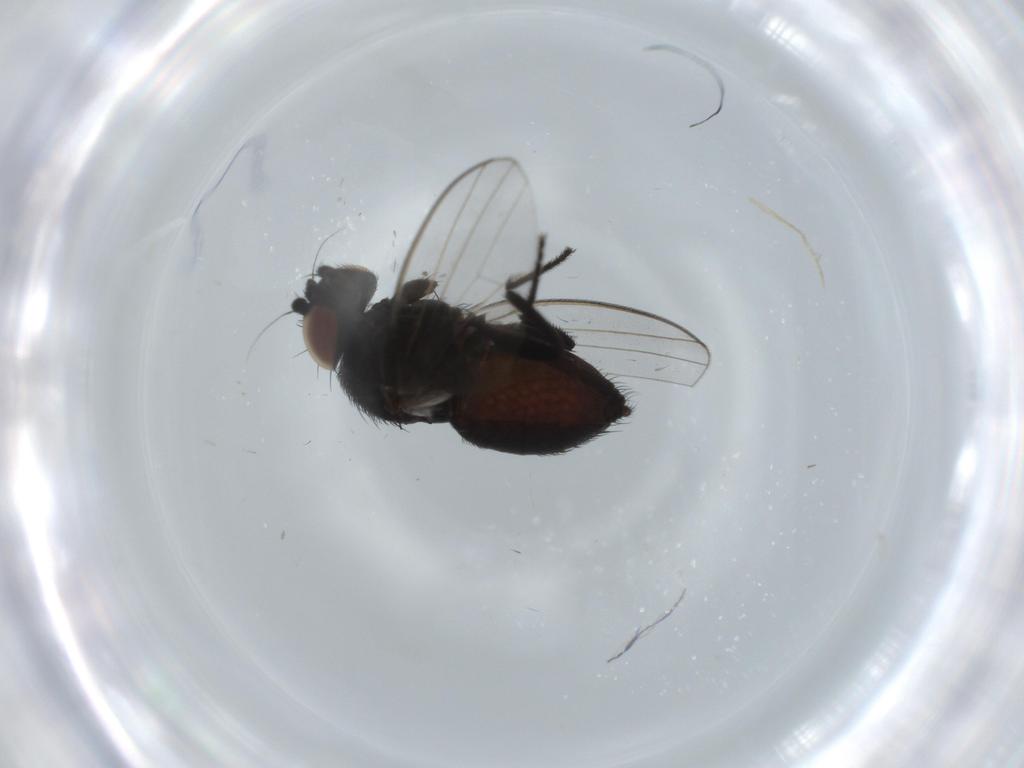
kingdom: Animalia
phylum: Arthropoda
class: Insecta
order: Diptera
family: Milichiidae
